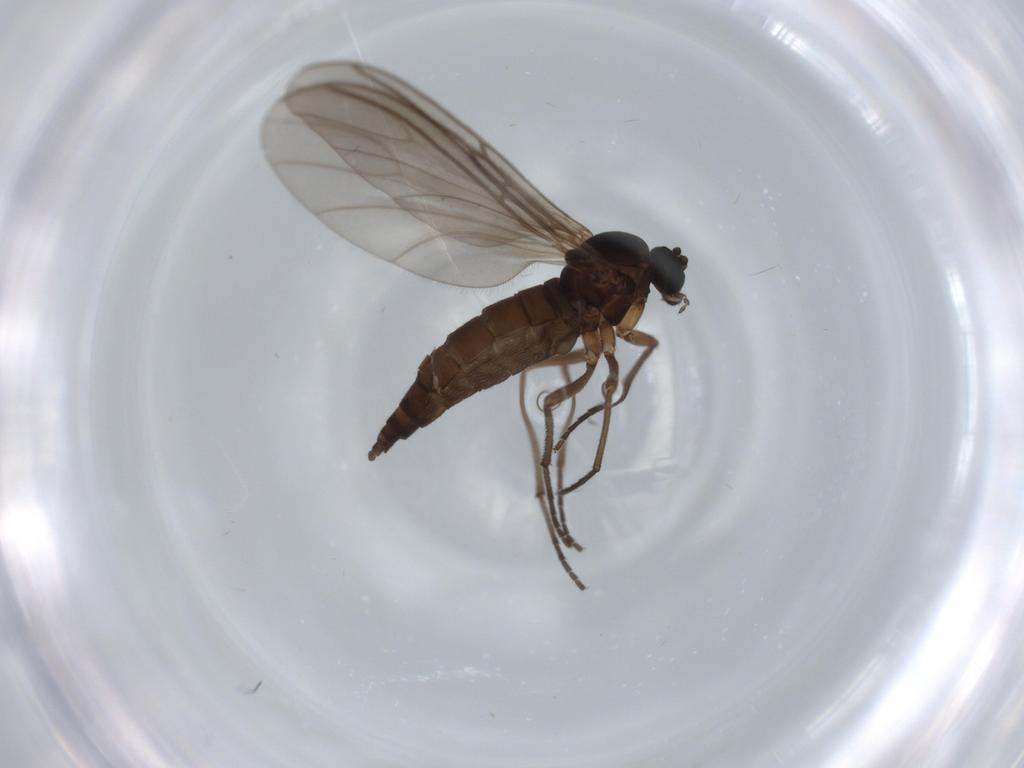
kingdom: Animalia
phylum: Arthropoda
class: Insecta
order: Diptera
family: Sciaridae
